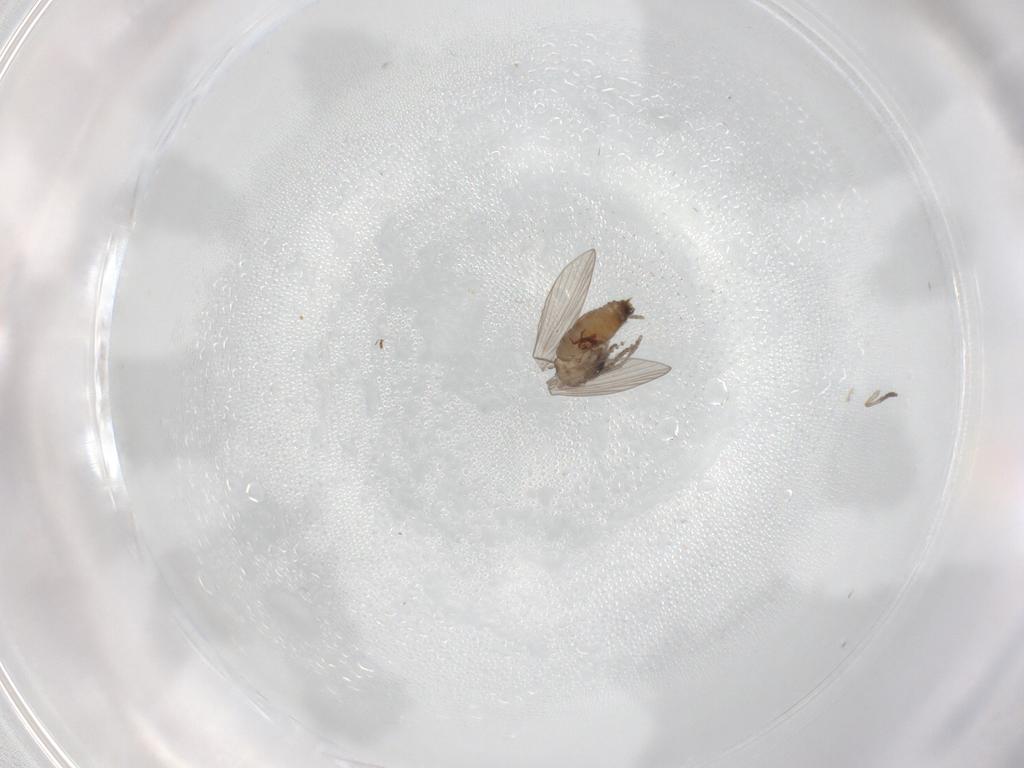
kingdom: Animalia
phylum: Arthropoda
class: Insecta
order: Diptera
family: Psychodidae
